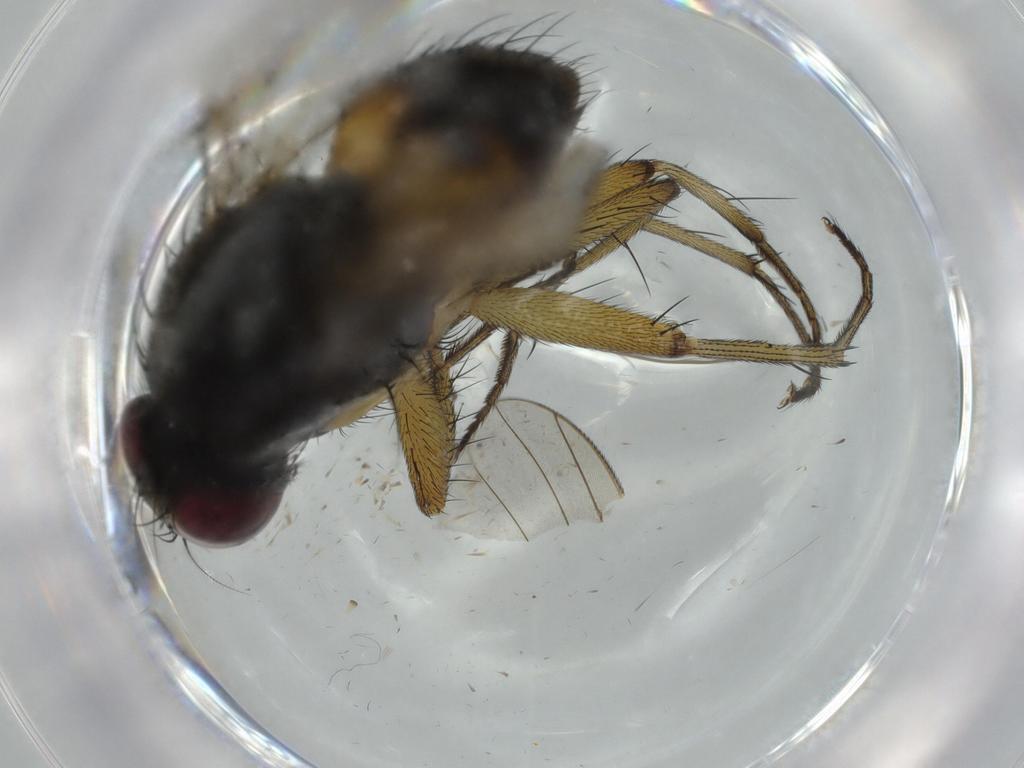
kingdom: Animalia
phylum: Arthropoda
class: Insecta
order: Diptera
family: Muscidae
